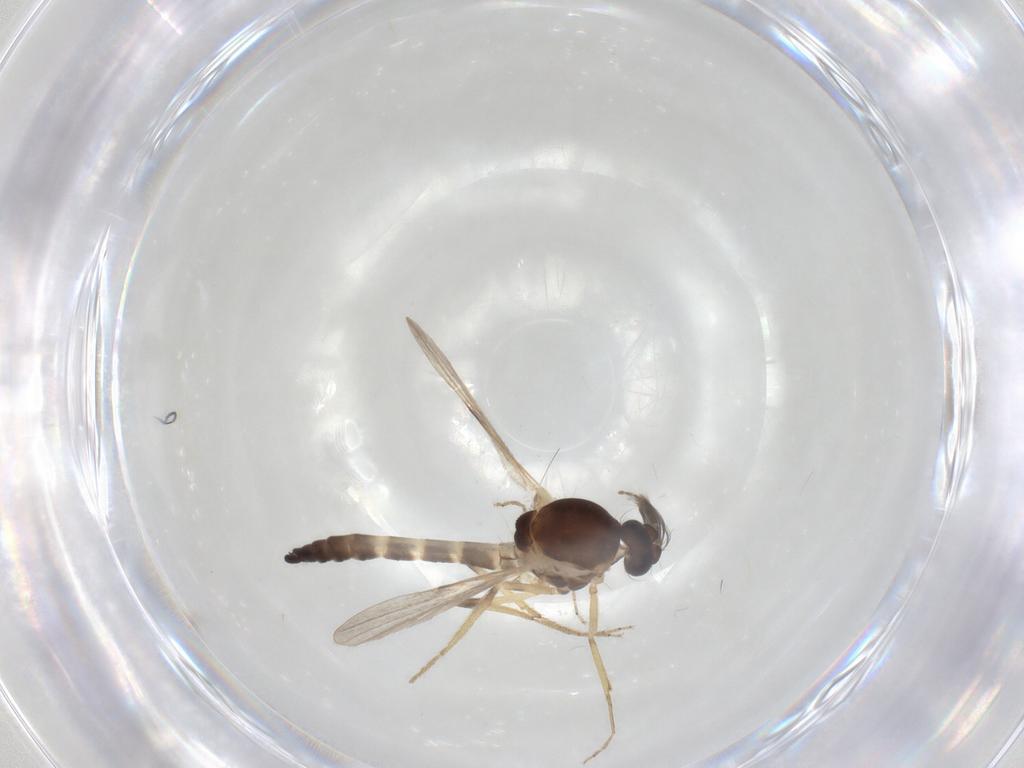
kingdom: Animalia
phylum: Arthropoda
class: Insecta
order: Diptera
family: Ceratopogonidae
